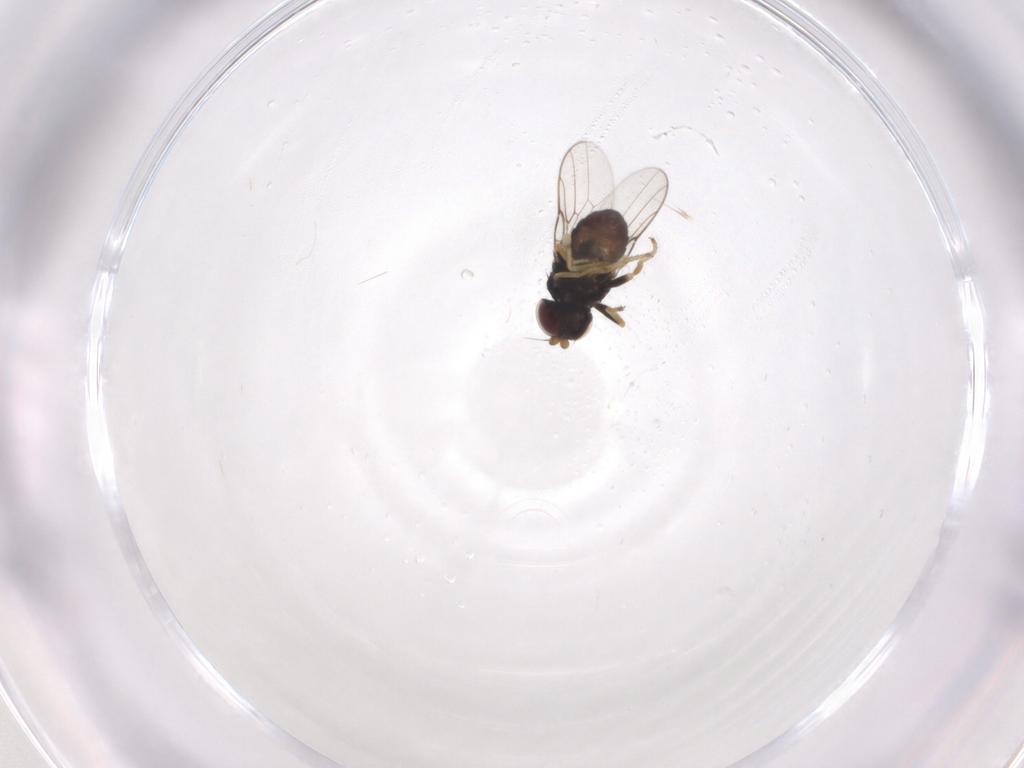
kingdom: Animalia
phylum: Arthropoda
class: Insecta
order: Diptera
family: Chloropidae
